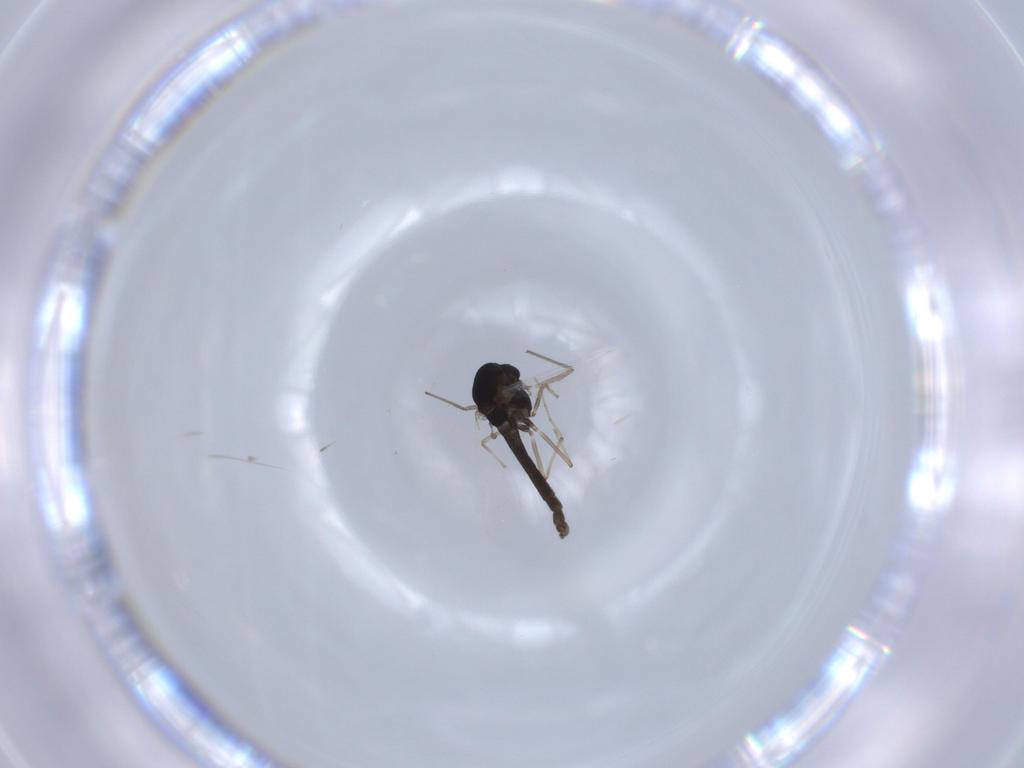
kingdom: Animalia
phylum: Arthropoda
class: Insecta
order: Diptera
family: Chironomidae
